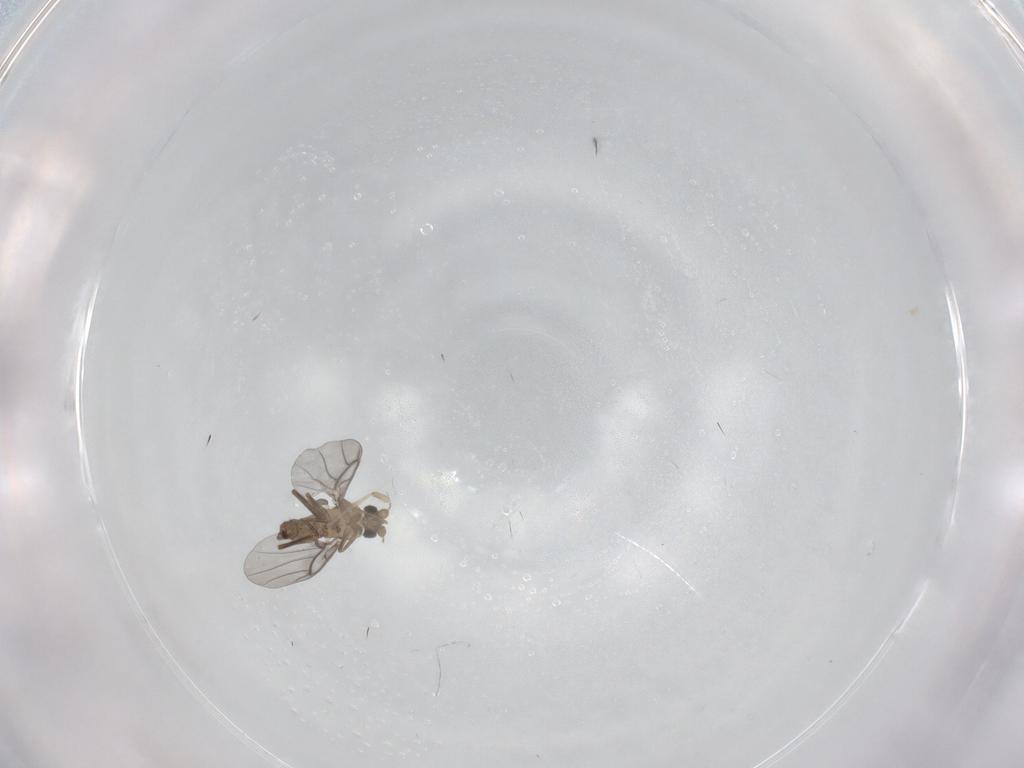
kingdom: Animalia
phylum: Arthropoda
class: Insecta
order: Diptera
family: Chironomidae
